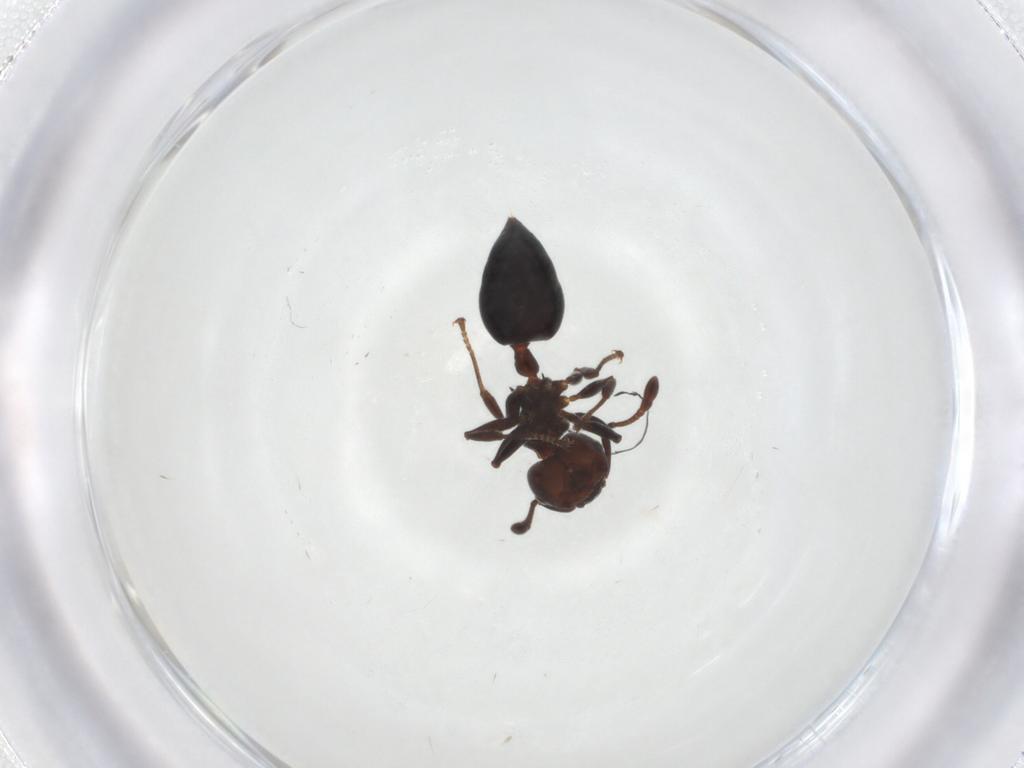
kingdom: Animalia
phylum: Arthropoda
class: Insecta
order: Hymenoptera
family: Formicidae
